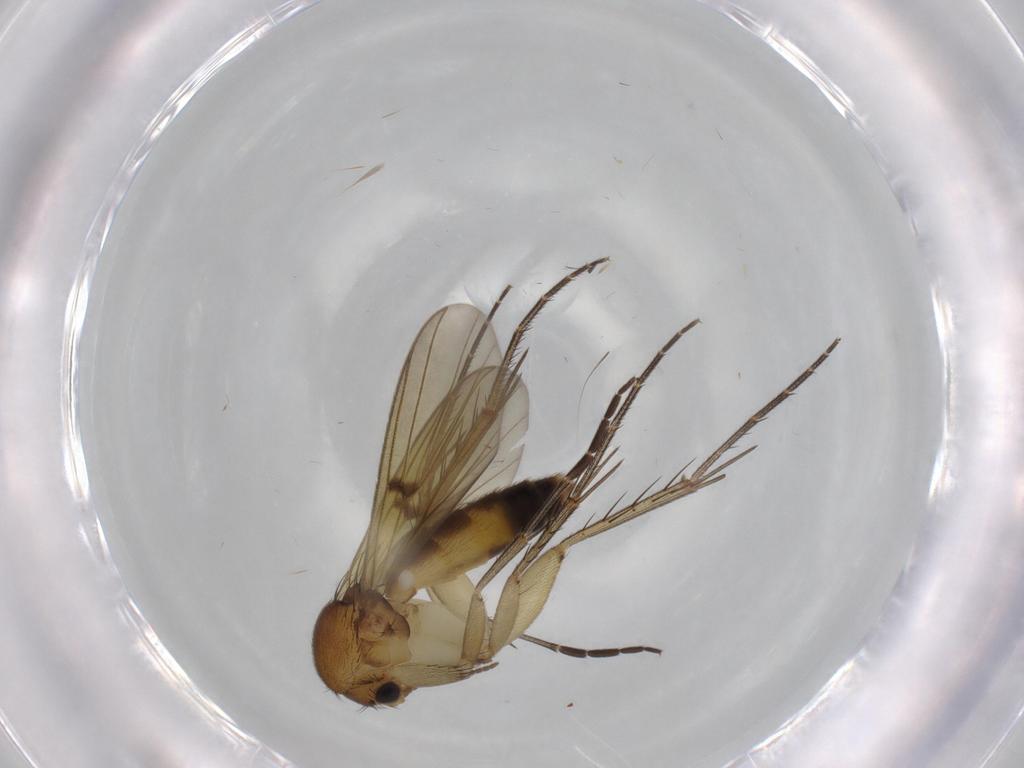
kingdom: Animalia
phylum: Arthropoda
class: Insecta
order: Diptera
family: Mycetophilidae
